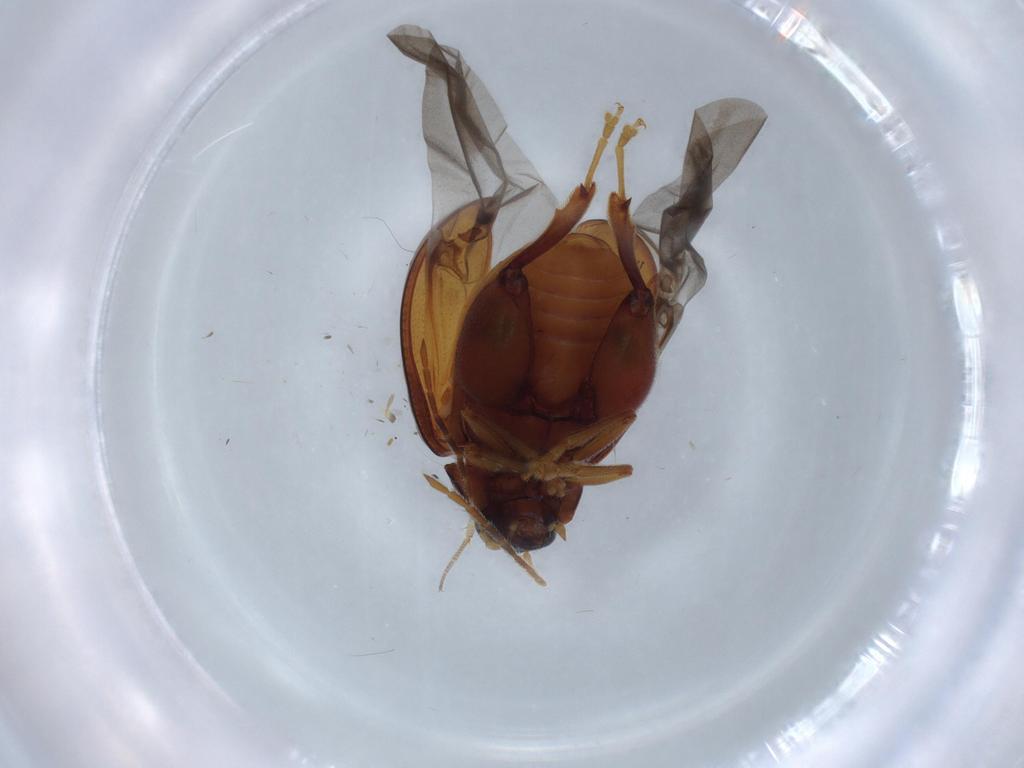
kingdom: Animalia
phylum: Arthropoda
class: Insecta
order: Coleoptera
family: Chrysomelidae
